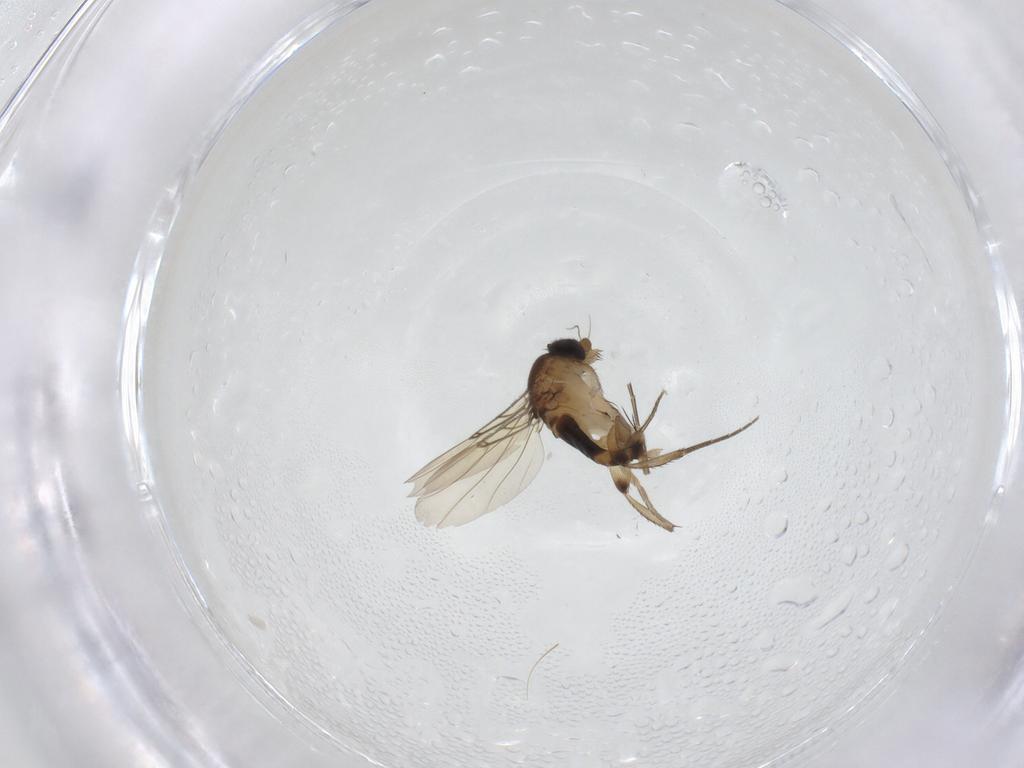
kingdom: Animalia
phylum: Arthropoda
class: Insecta
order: Diptera
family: Phoridae
